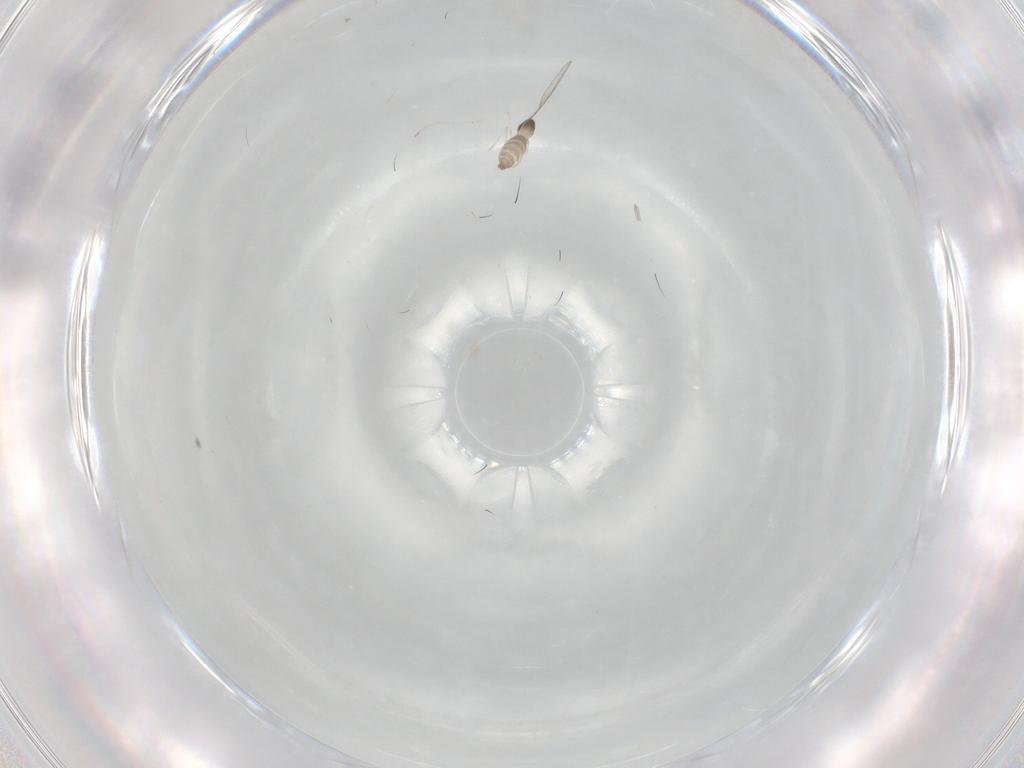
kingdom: Animalia
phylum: Arthropoda
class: Insecta
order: Diptera
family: Cecidomyiidae
